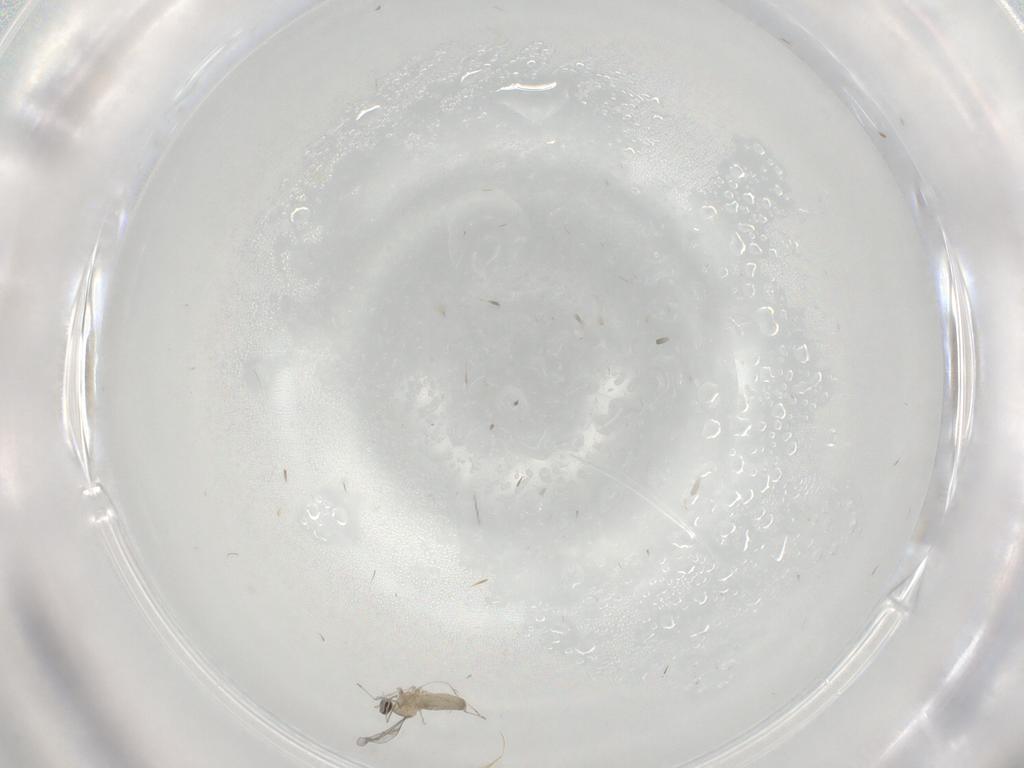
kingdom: Animalia
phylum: Arthropoda
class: Insecta
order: Diptera
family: Cecidomyiidae
